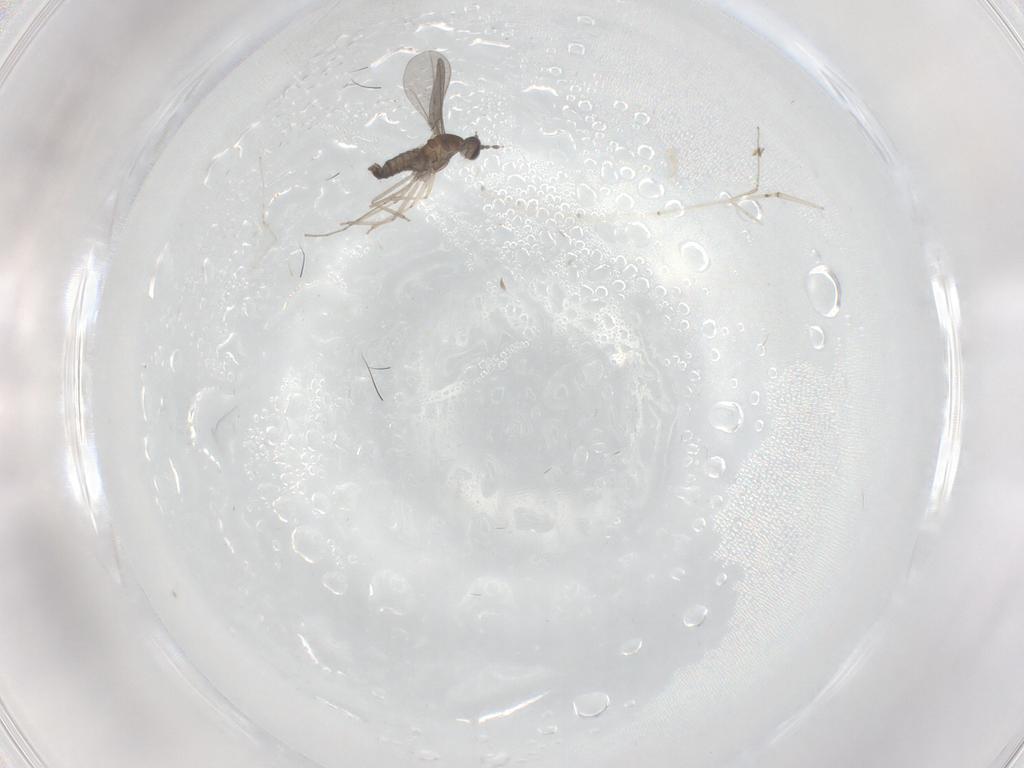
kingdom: Animalia
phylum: Arthropoda
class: Insecta
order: Diptera
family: Cecidomyiidae
